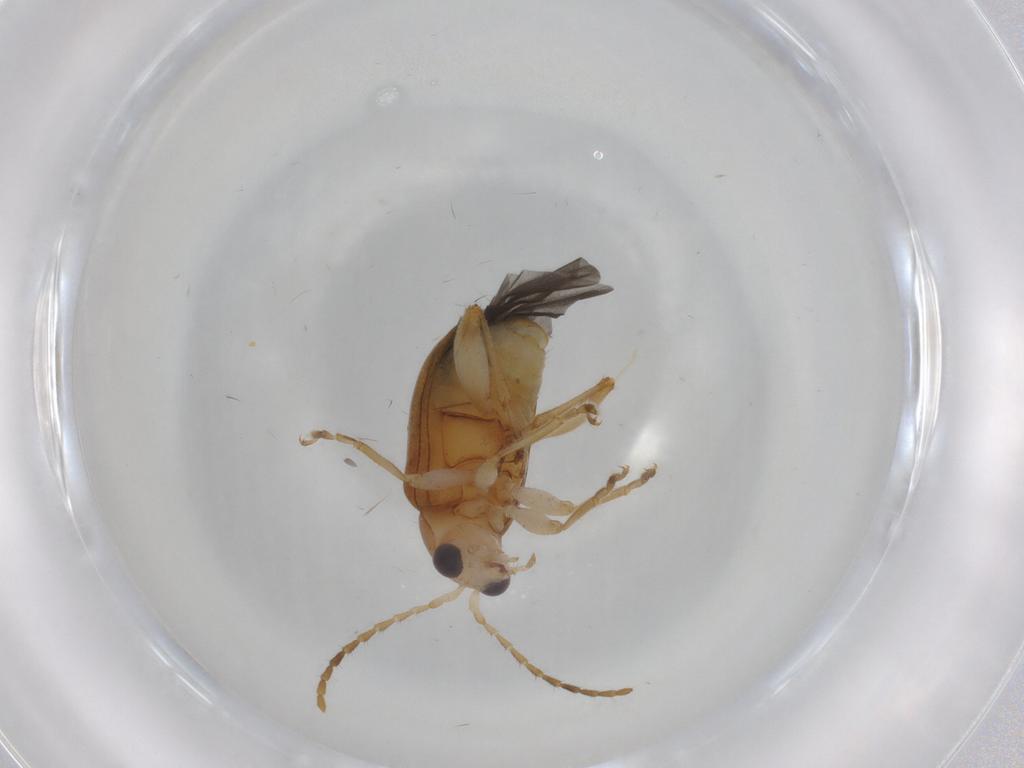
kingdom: Animalia
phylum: Arthropoda
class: Insecta
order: Coleoptera
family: Chrysomelidae
